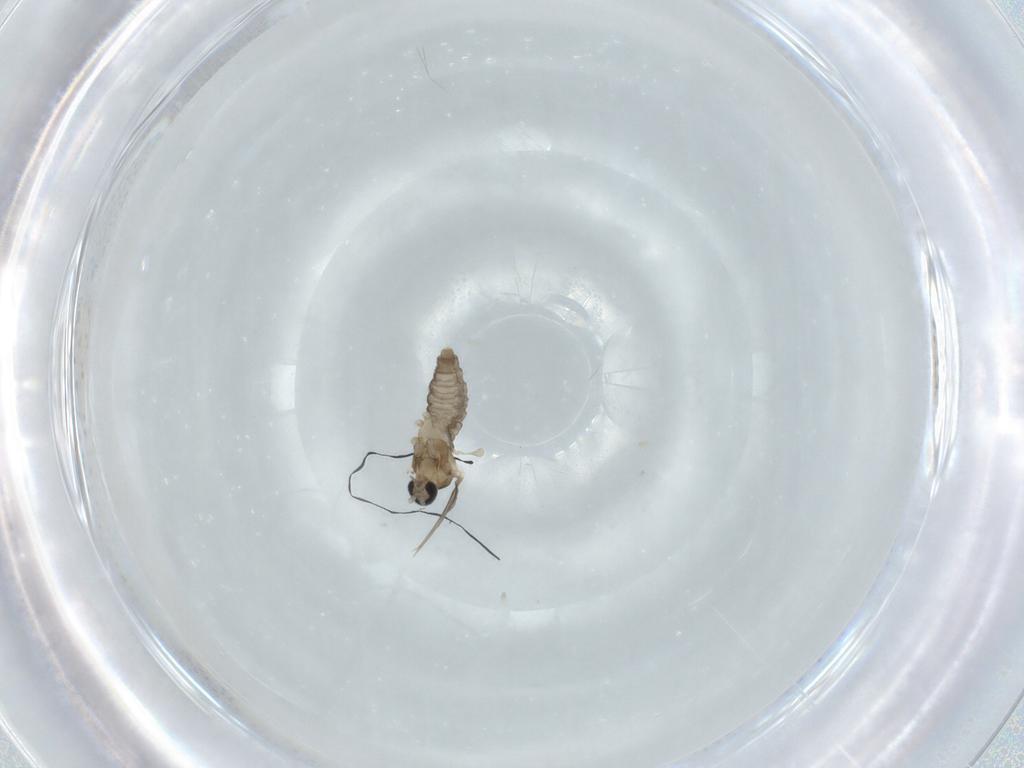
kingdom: Animalia
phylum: Arthropoda
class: Insecta
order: Diptera
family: Cecidomyiidae
